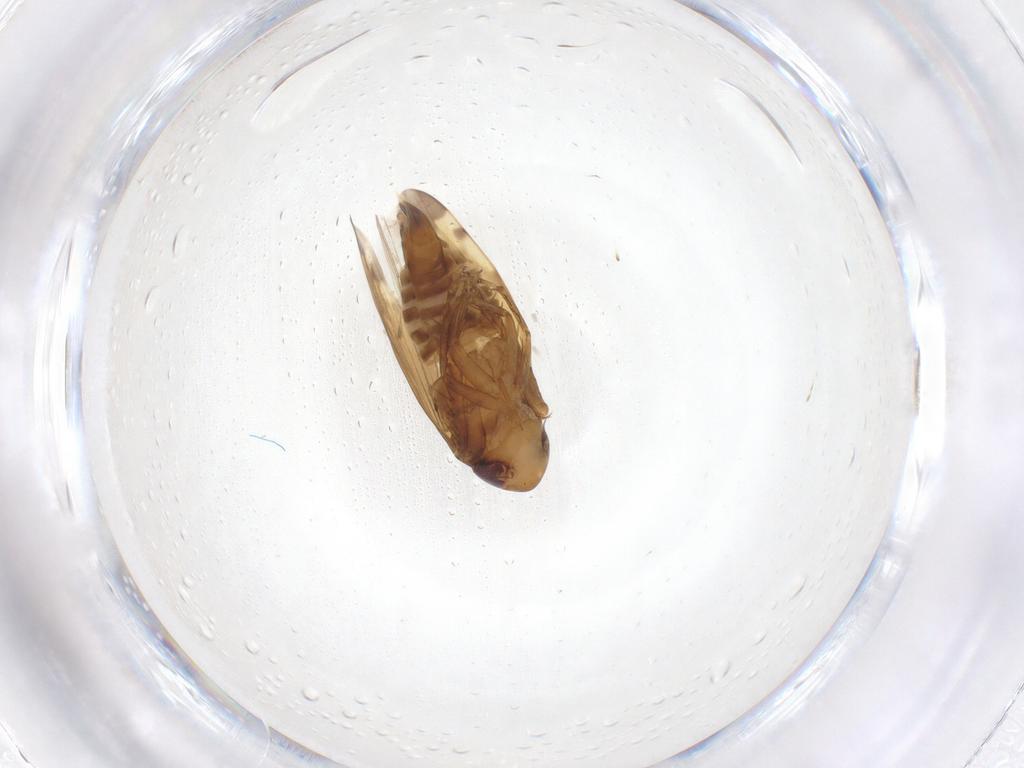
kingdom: Animalia
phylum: Arthropoda
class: Insecta
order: Hemiptera
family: Cicadellidae
